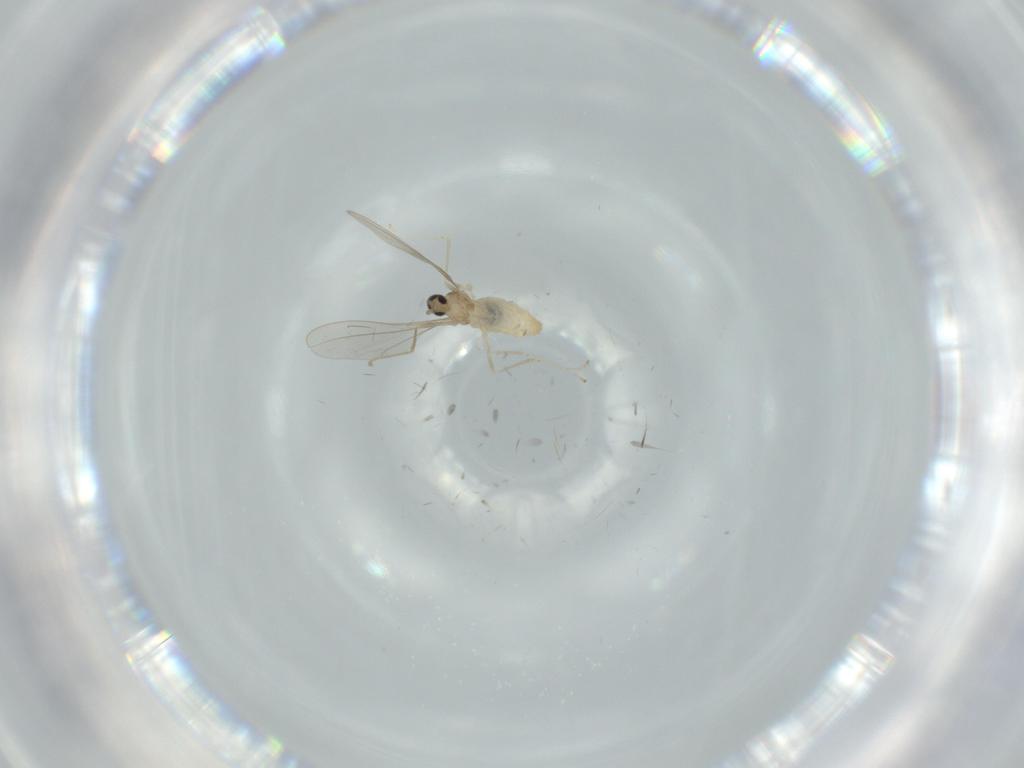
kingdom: Animalia
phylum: Arthropoda
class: Insecta
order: Diptera
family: Cecidomyiidae
